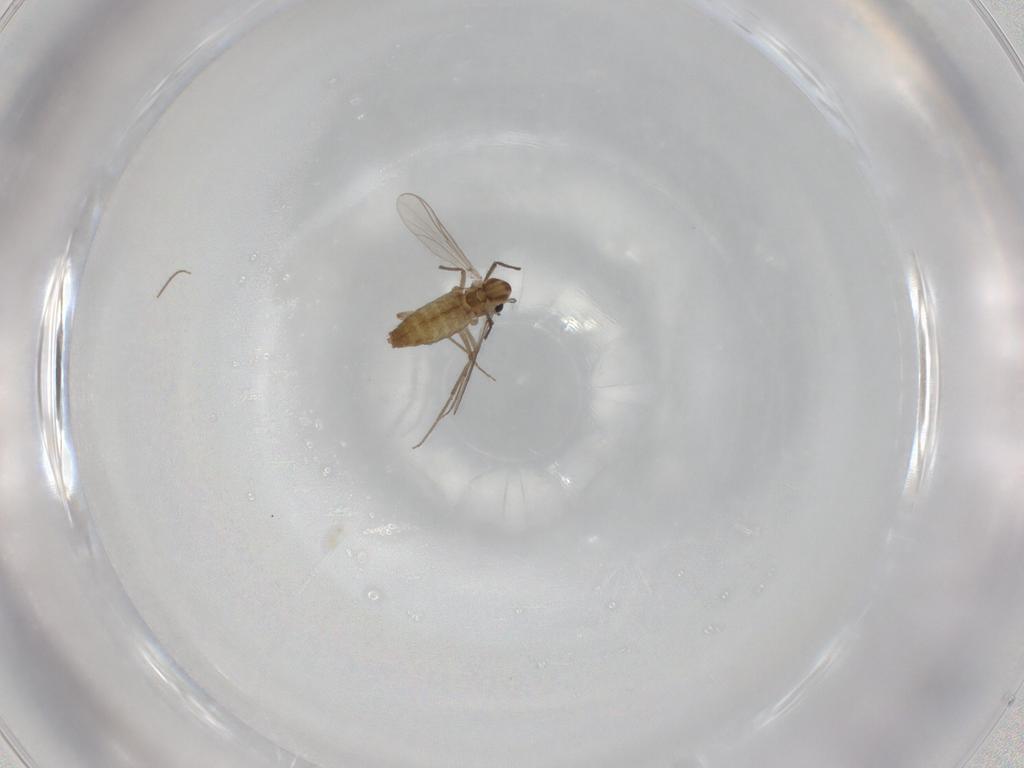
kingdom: Animalia
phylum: Arthropoda
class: Insecta
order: Diptera
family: Chironomidae
